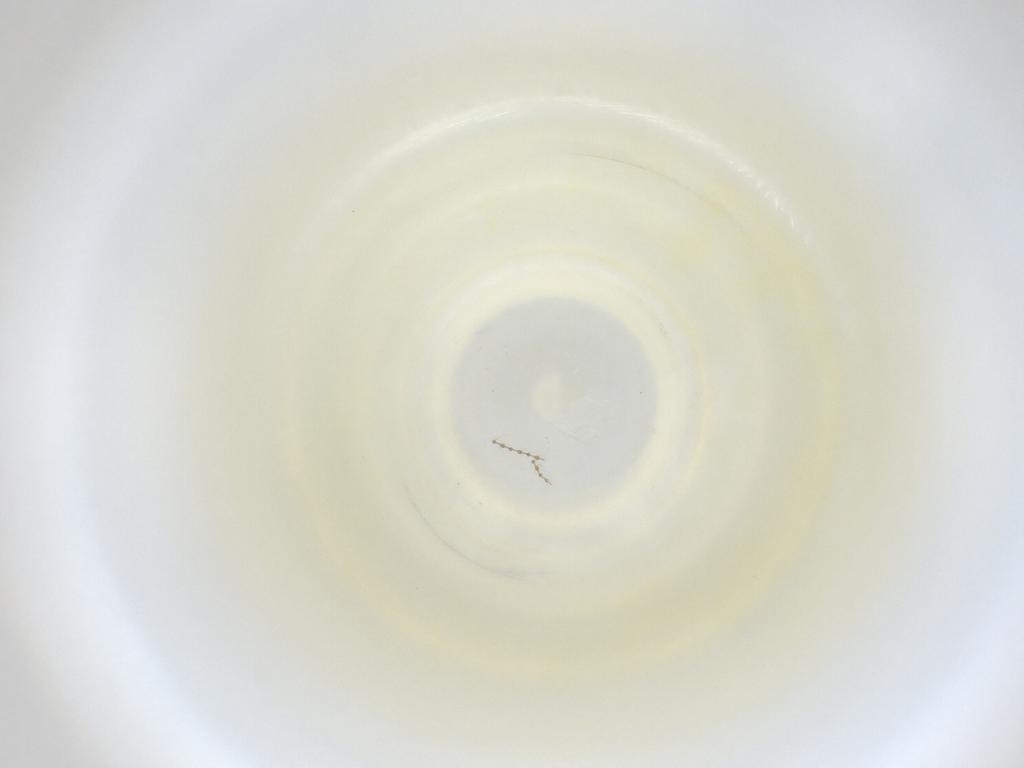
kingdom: Animalia
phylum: Arthropoda
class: Insecta
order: Diptera
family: Cecidomyiidae
